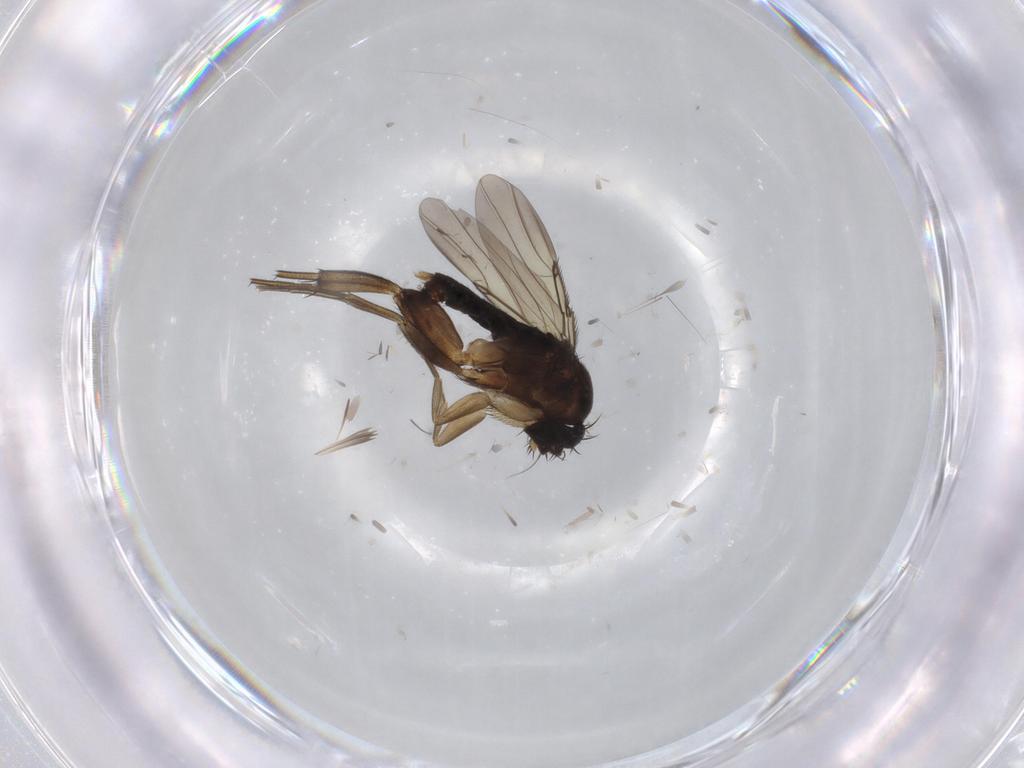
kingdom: Animalia
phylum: Arthropoda
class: Insecta
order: Diptera
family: Phoridae
